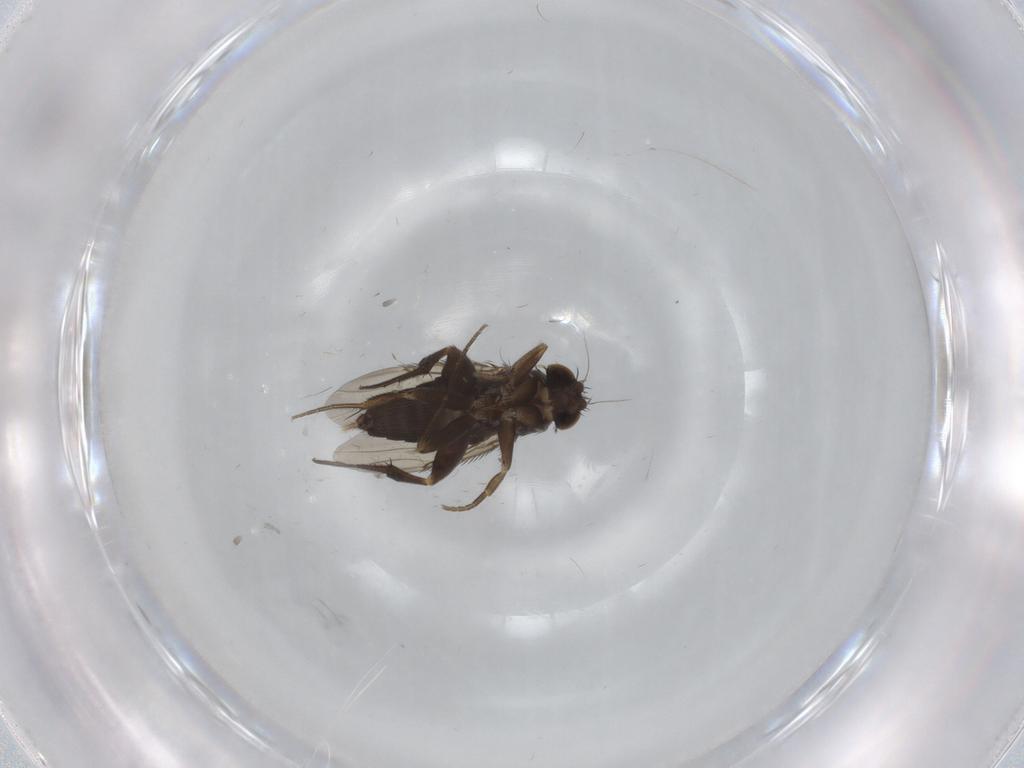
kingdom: Animalia
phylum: Arthropoda
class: Insecta
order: Diptera
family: Phoridae
